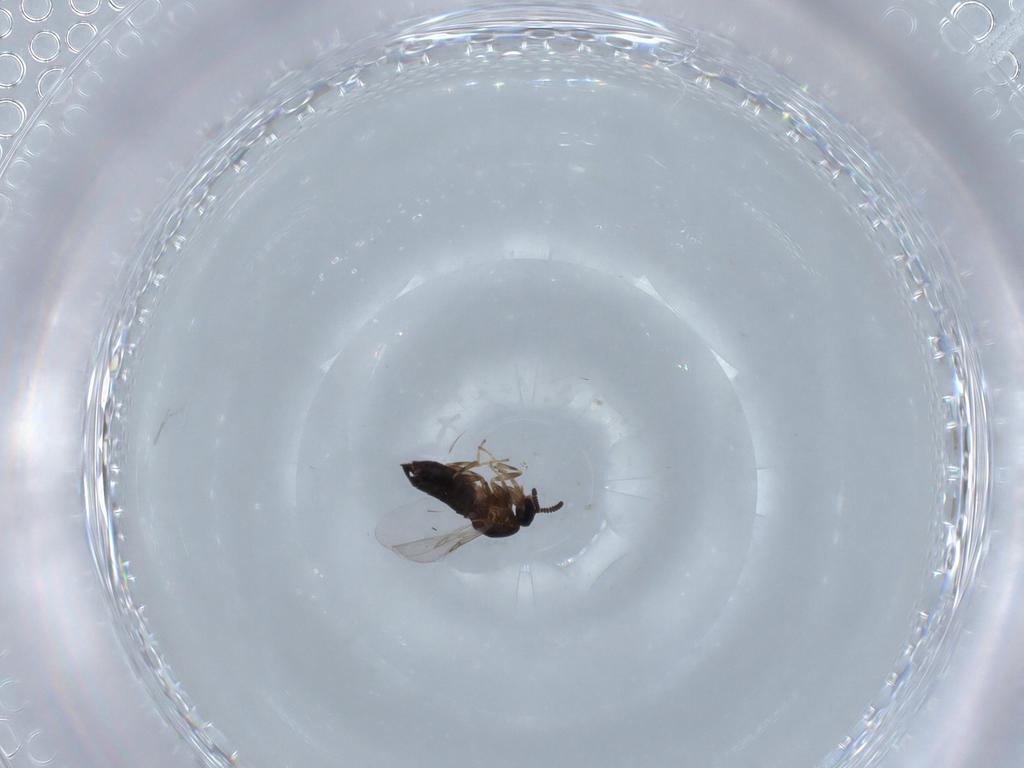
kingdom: Animalia
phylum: Arthropoda
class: Insecta
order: Diptera
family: Scatopsidae
